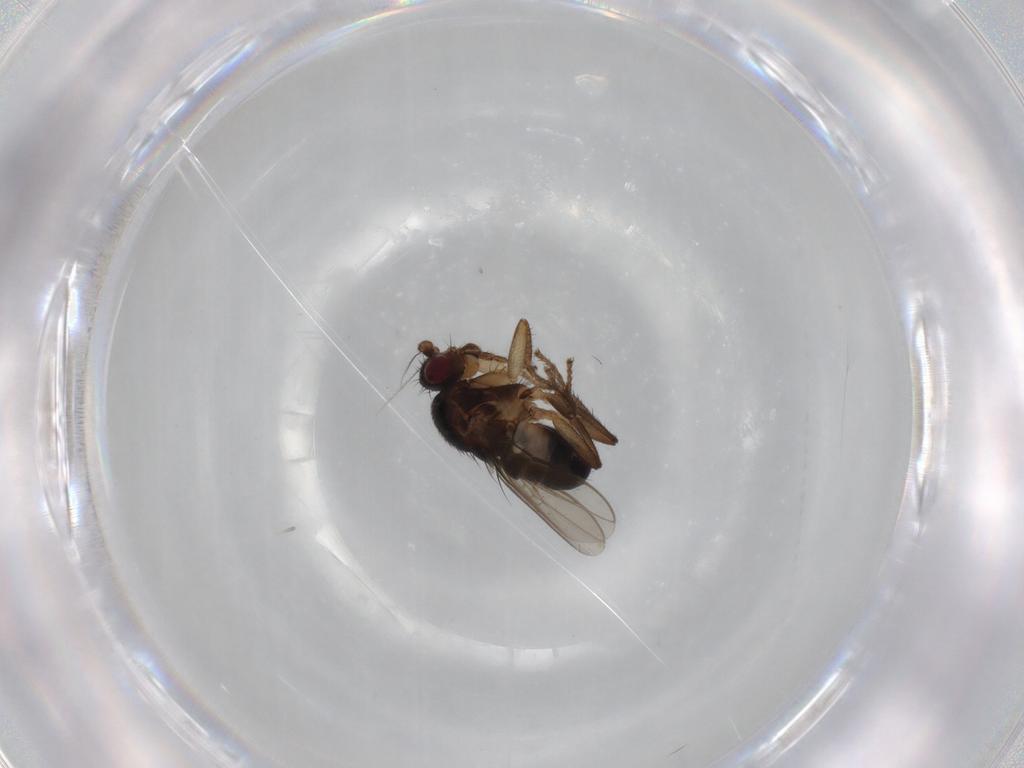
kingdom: Animalia
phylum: Arthropoda
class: Insecta
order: Diptera
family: Sphaeroceridae
